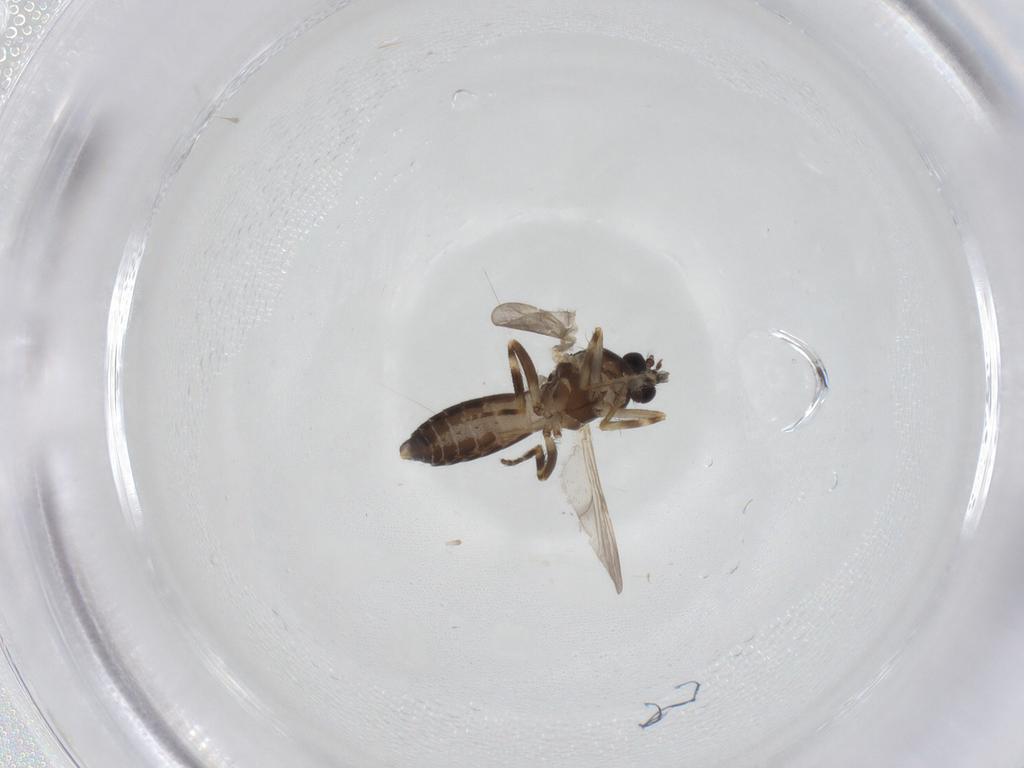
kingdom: Animalia
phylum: Arthropoda
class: Insecta
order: Diptera
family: Ceratopogonidae
